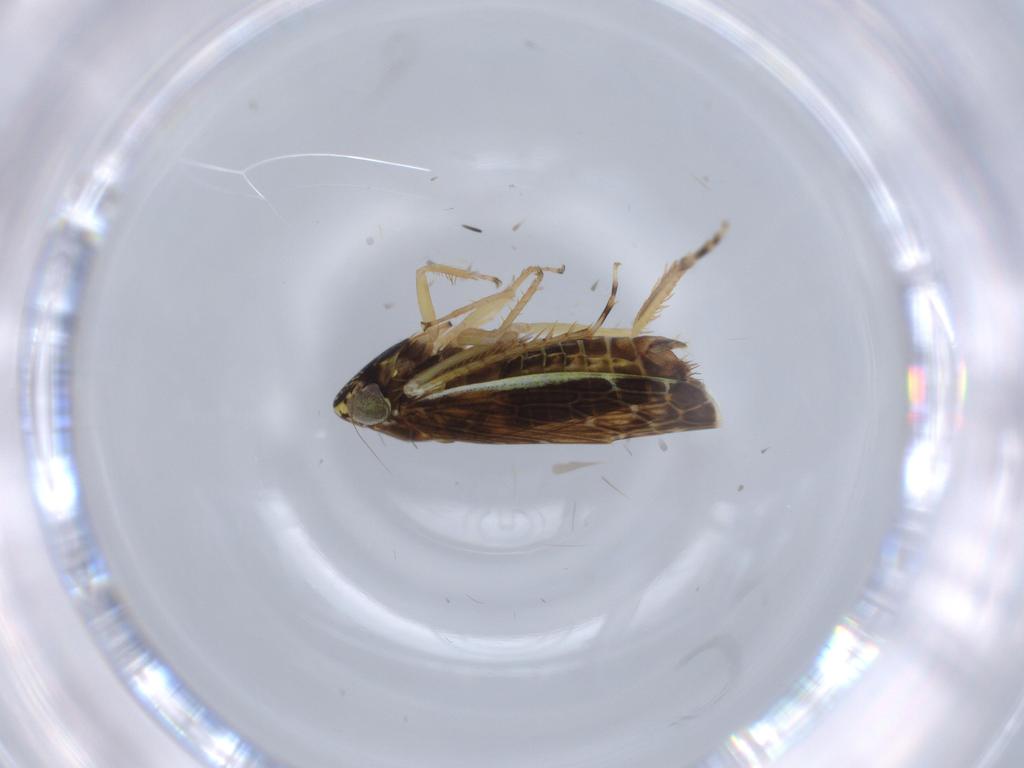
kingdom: Animalia
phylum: Arthropoda
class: Insecta
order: Hemiptera
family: Cicadellidae
